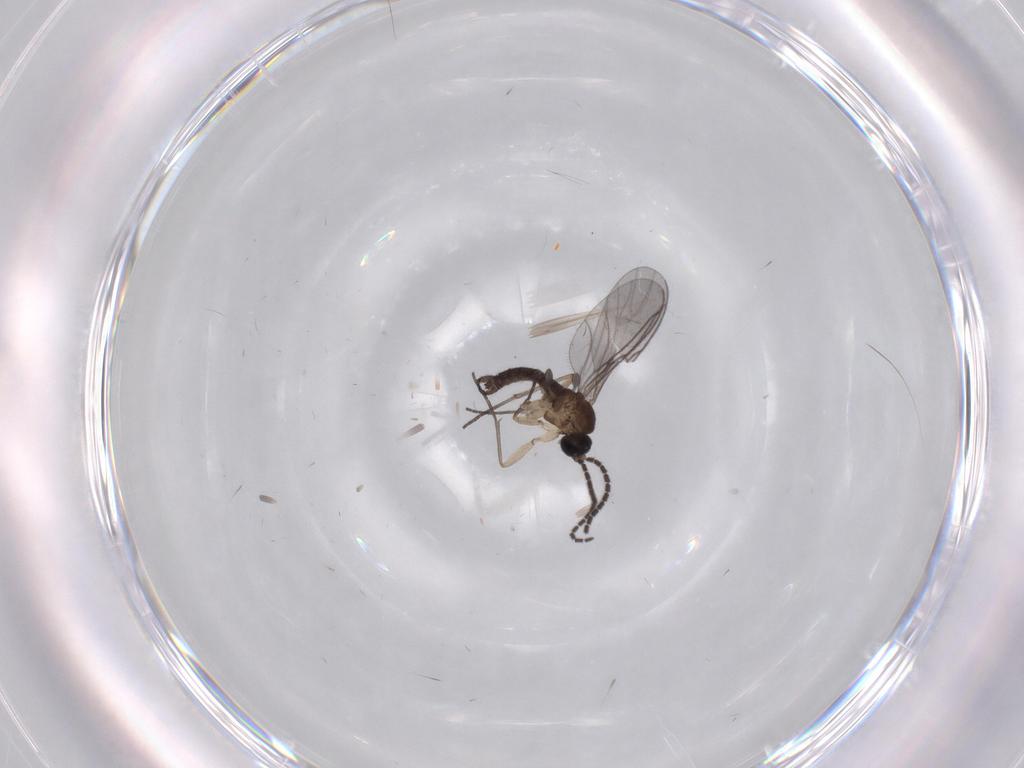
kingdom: Animalia
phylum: Arthropoda
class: Insecta
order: Diptera
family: Sciaridae
